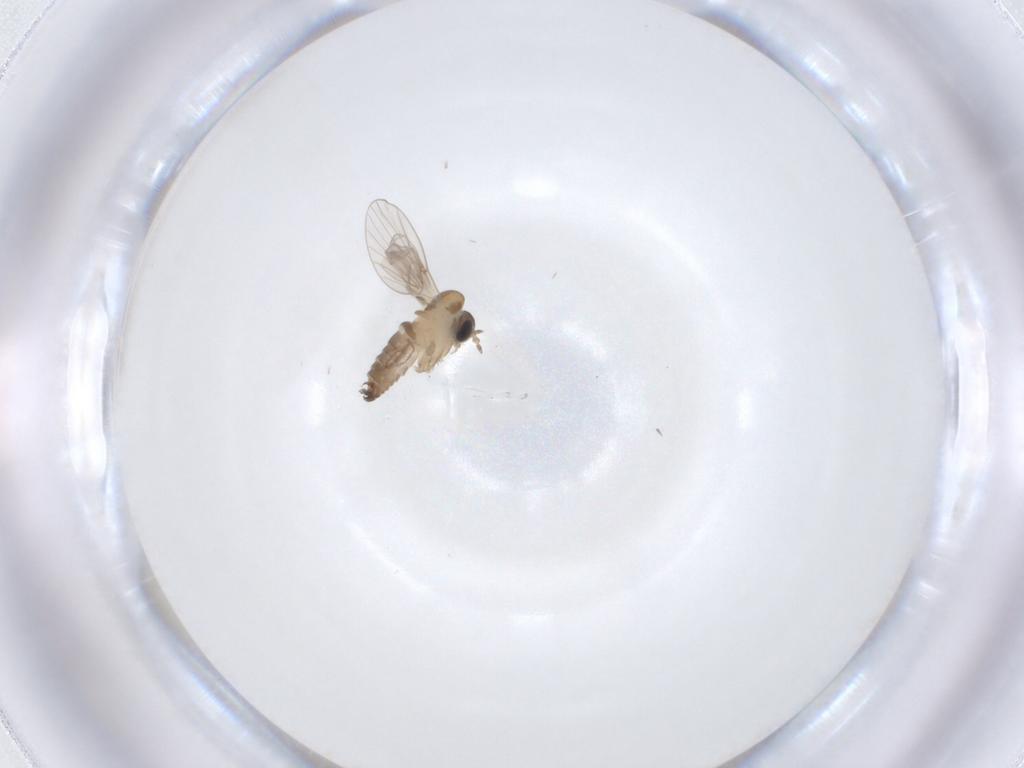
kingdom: Animalia
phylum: Arthropoda
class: Insecta
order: Diptera
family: Psychodidae
